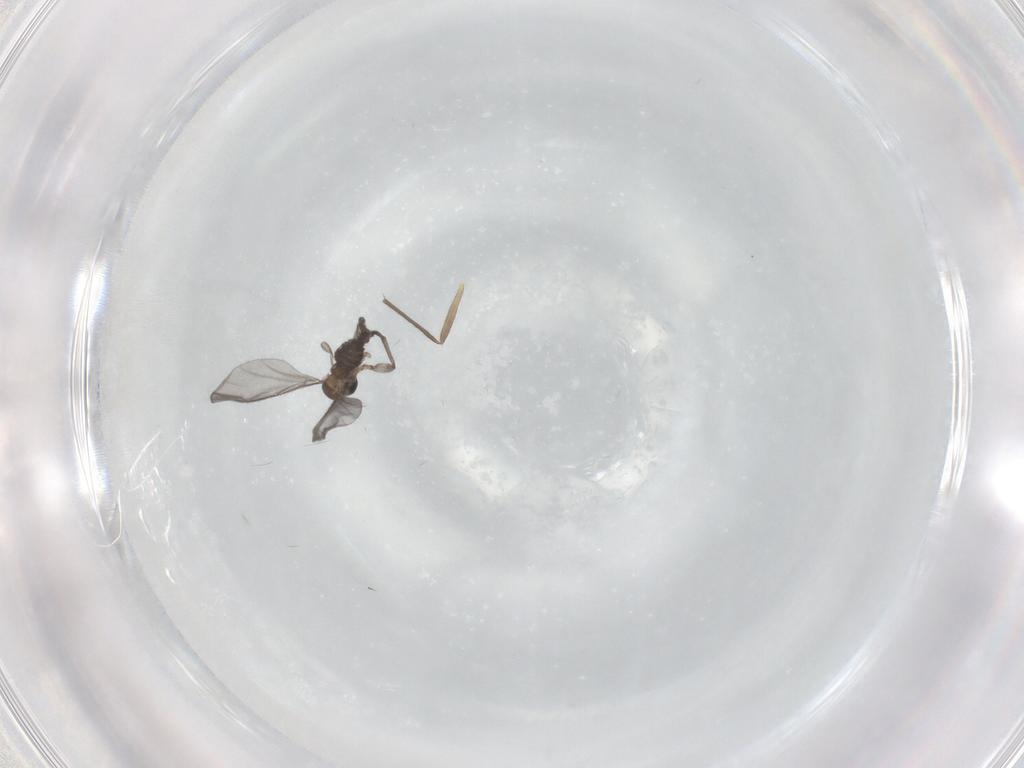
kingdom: Animalia
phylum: Arthropoda
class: Insecta
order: Diptera
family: Sciaridae
